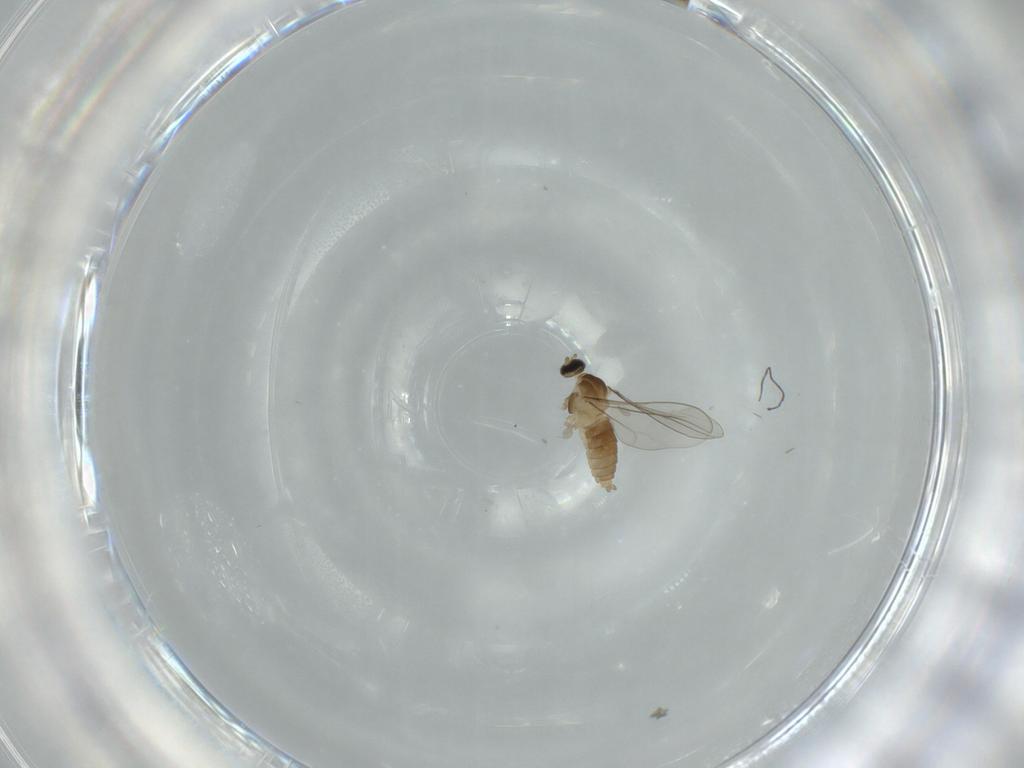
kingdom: Animalia
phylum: Arthropoda
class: Insecta
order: Diptera
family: Cecidomyiidae
